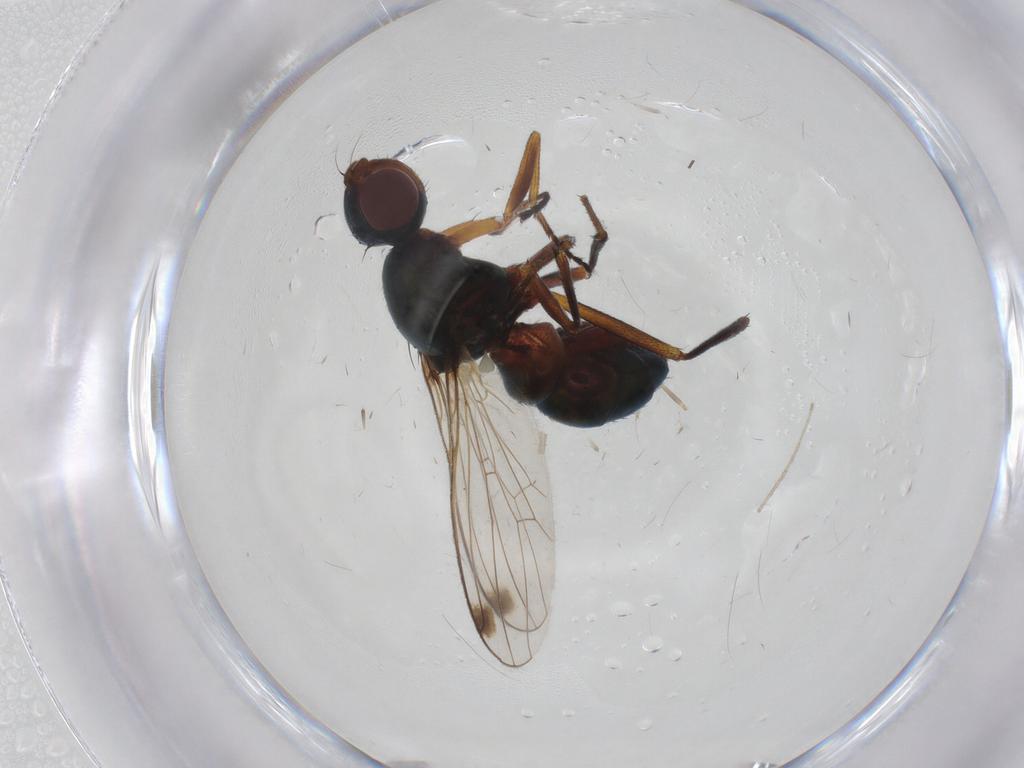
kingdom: Animalia
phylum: Arthropoda
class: Insecta
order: Diptera
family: Sepsidae
